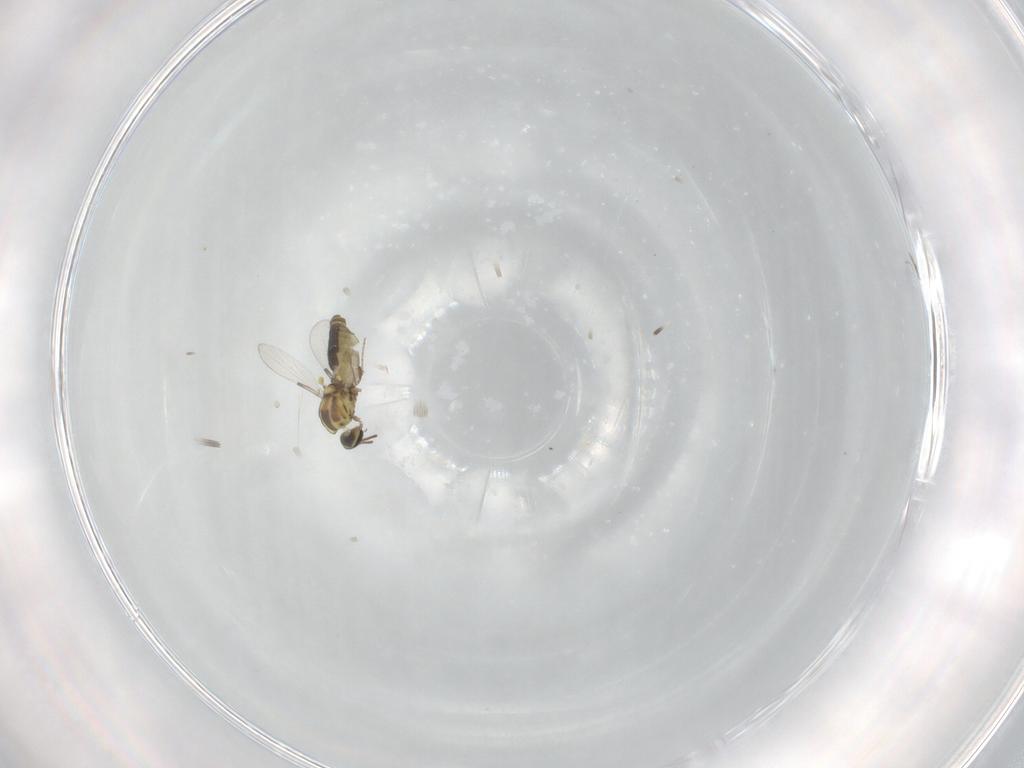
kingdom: Animalia
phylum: Arthropoda
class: Insecta
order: Diptera
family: Ceratopogonidae
